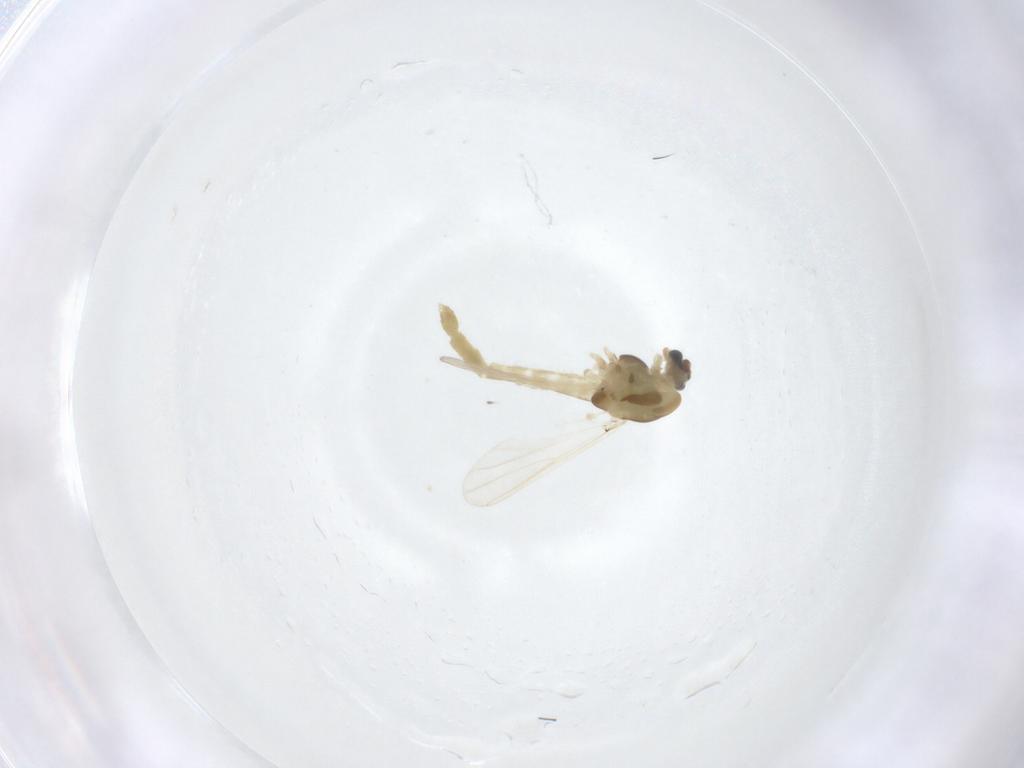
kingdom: Animalia
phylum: Arthropoda
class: Insecta
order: Diptera
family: Chironomidae
